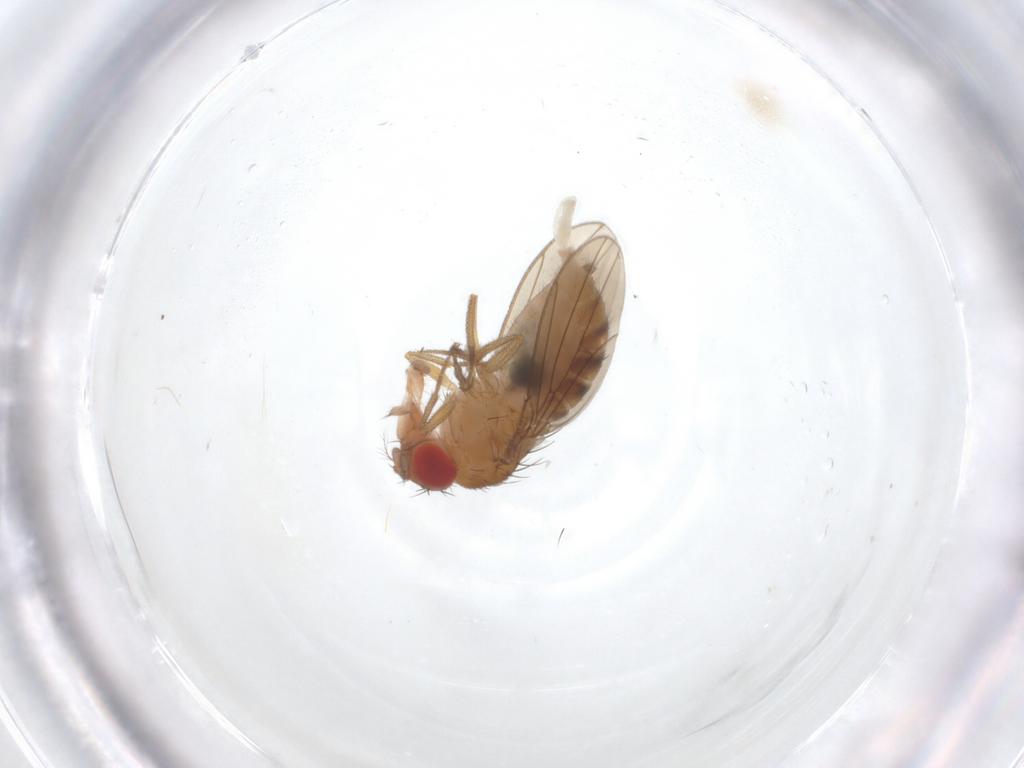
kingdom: Animalia
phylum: Arthropoda
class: Insecta
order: Diptera
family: Drosophilidae
